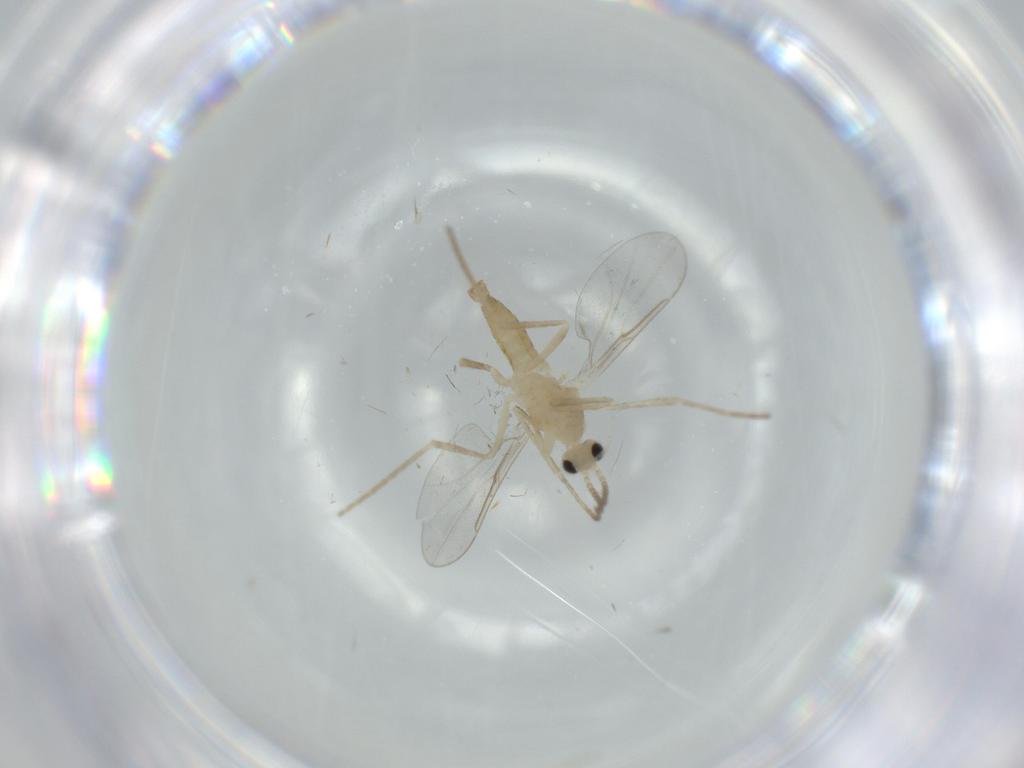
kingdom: Animalia
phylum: Arthropoda
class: Insecta
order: Diptera
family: Cecidomyiidae
